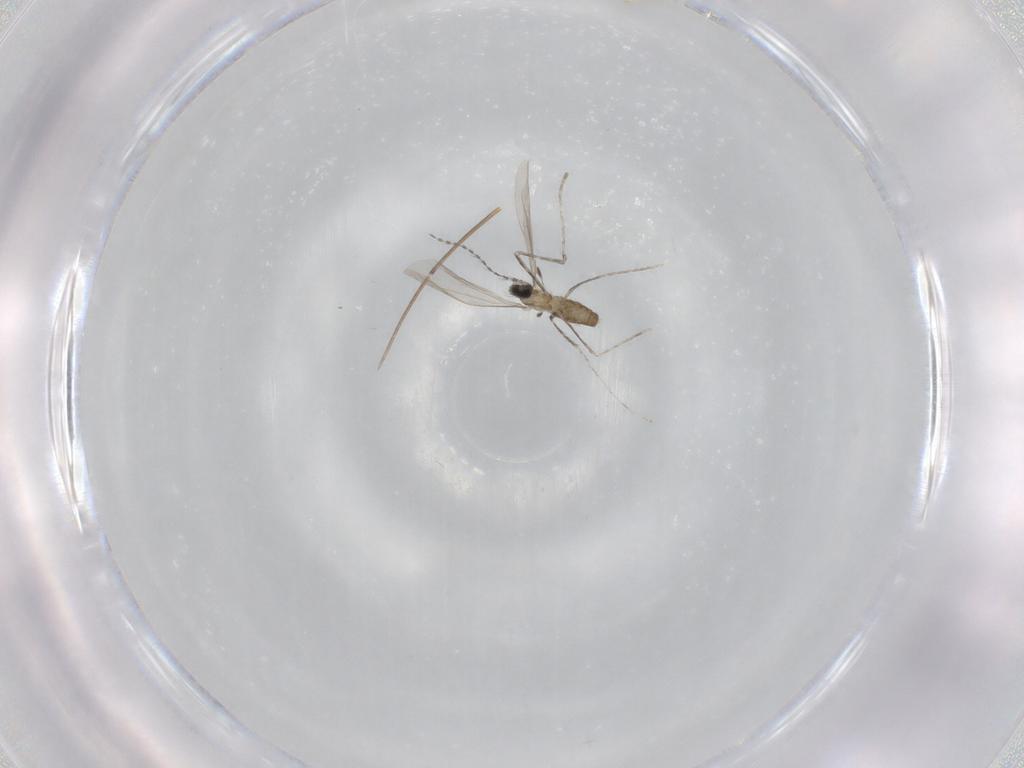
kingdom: Animalia
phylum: Arthropoda
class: Insecta
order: Diptera
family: Cecidomyiidae
